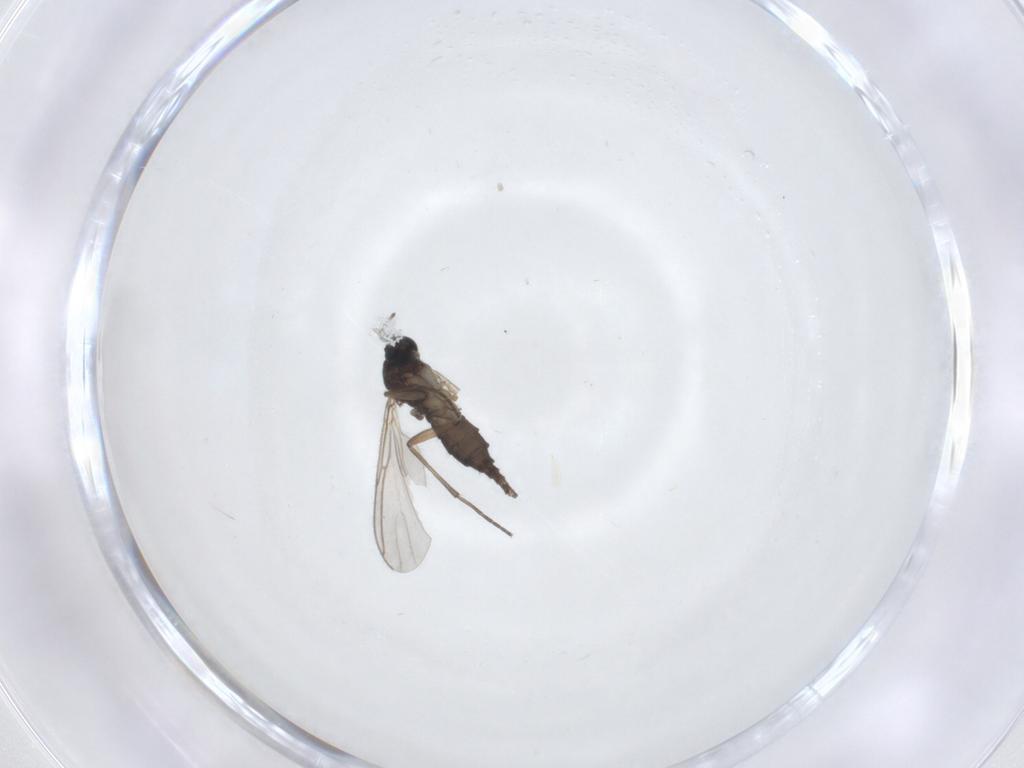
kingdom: Animalia
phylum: Arthropoda
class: Insecta
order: Diptera
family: Sciaridae
